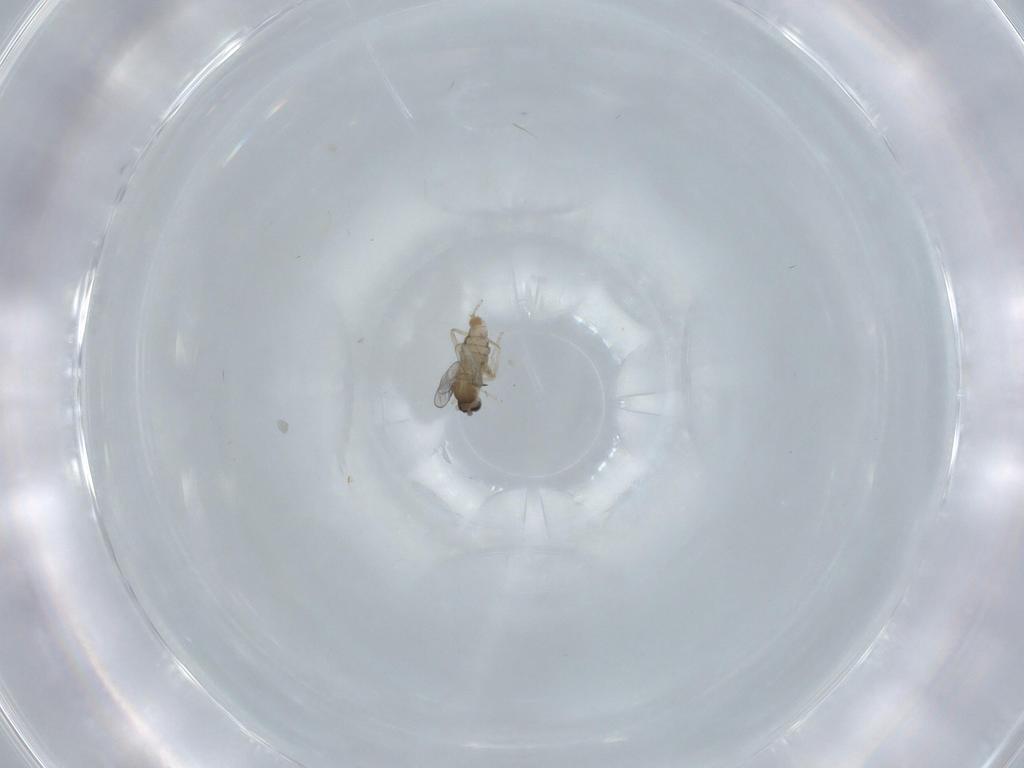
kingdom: Animalia
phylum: Arthropoda
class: Insecta
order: Diptera
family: Cecidomyiidae
